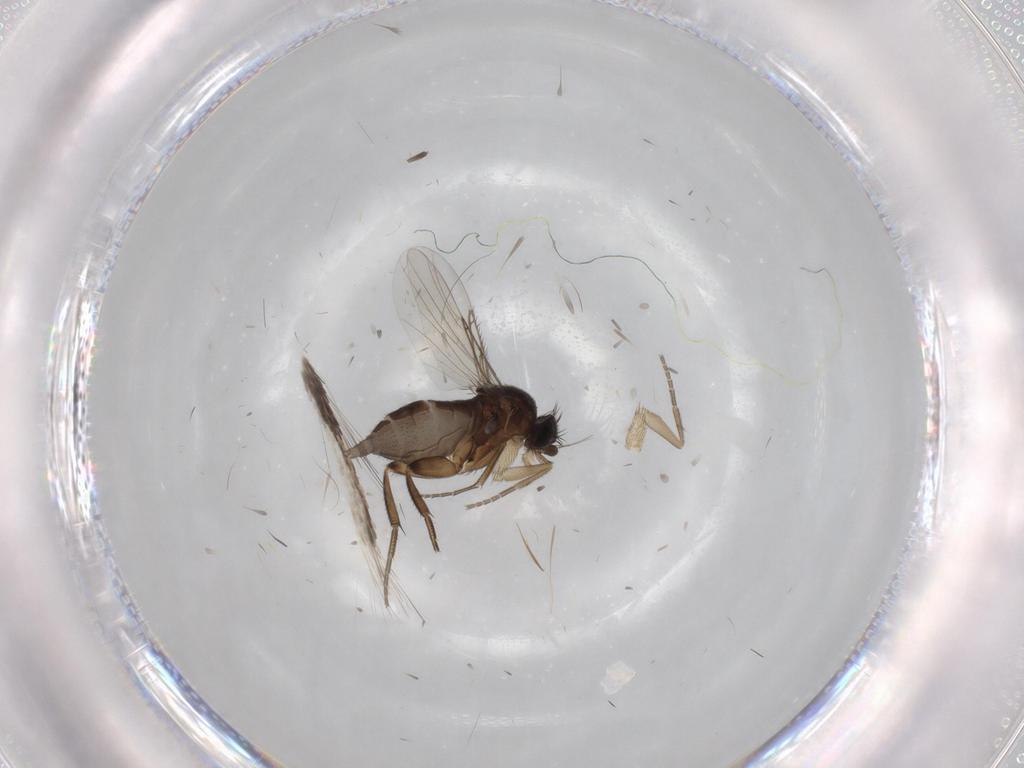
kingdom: Animalia
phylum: Arthropoda
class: Insecta
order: Diptera
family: Phoridae
